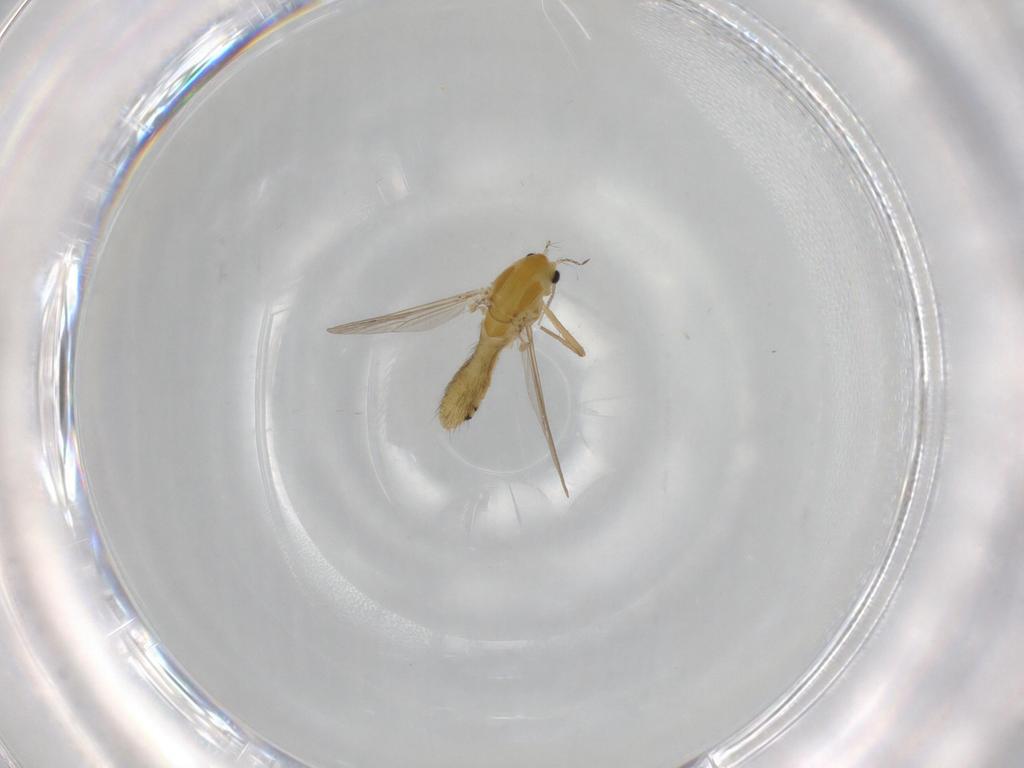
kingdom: Animalia
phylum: Arthropoda
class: Insecta
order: Diptera
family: Chironomidae
